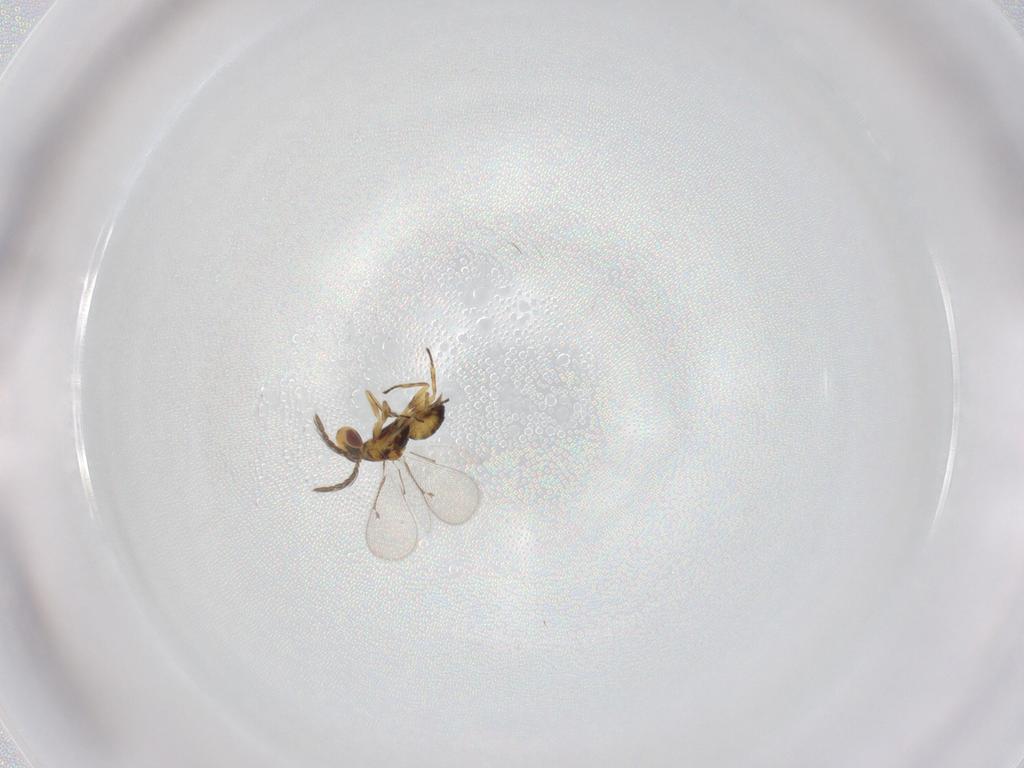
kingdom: Animalia
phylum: Arthropoda
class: Insecta
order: Hymenoptera
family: Eulophidae
